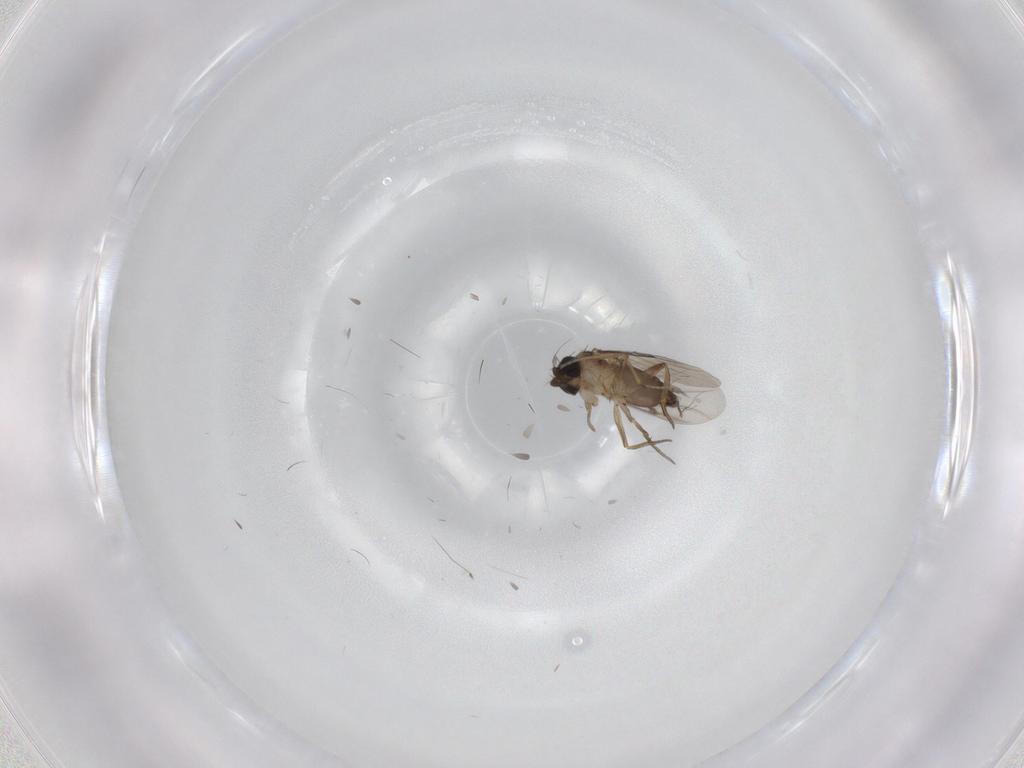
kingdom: Animalia
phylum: Arthropoda
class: Insecta
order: Diptera
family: Phoridae
